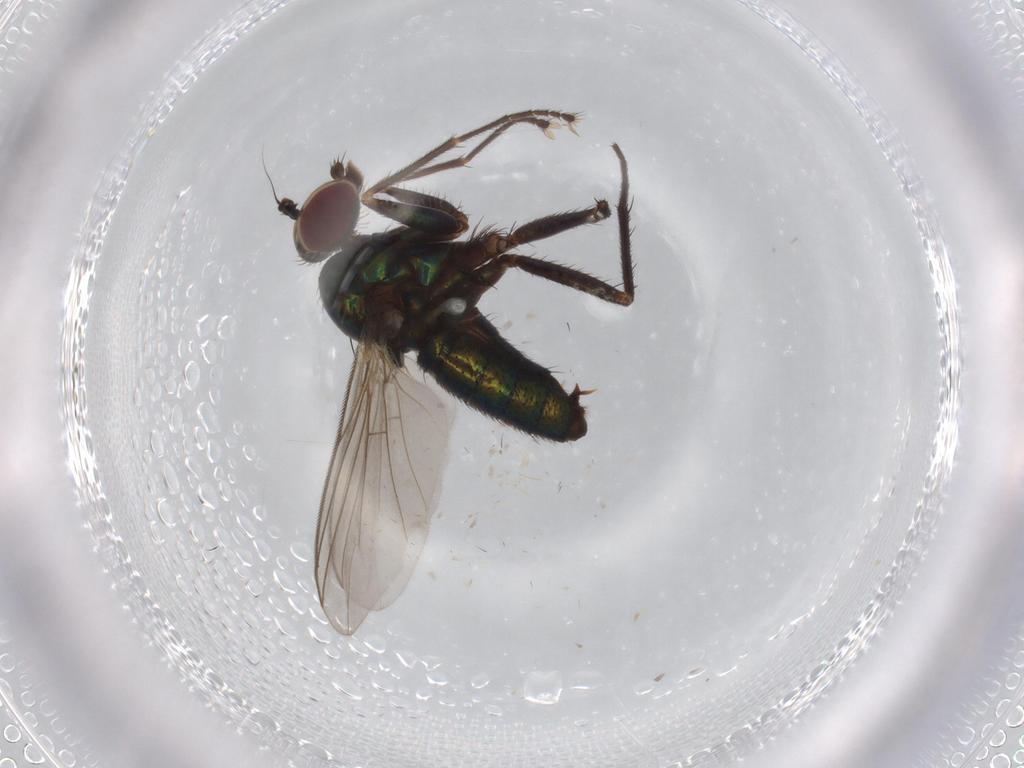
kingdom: Animalia
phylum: Arthropoda
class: Insecta
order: Diptera
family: Dolichopodidae
